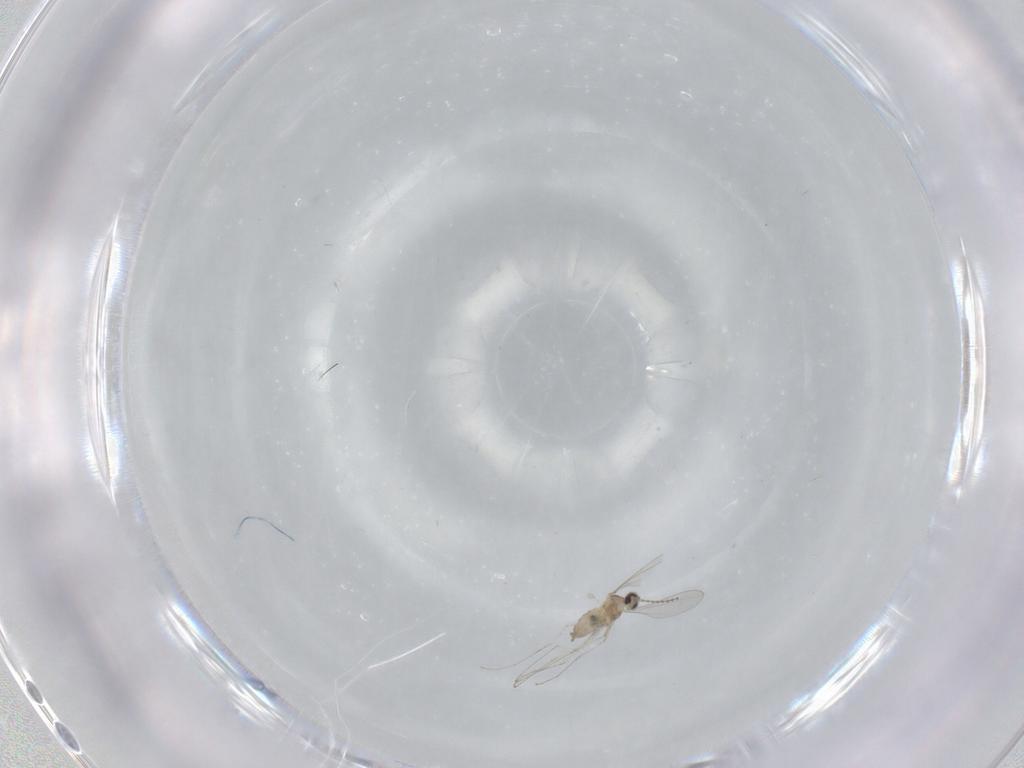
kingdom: Animalia
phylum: Arthropoda
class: Insecta
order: Diptera
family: Cecidomyiidae
